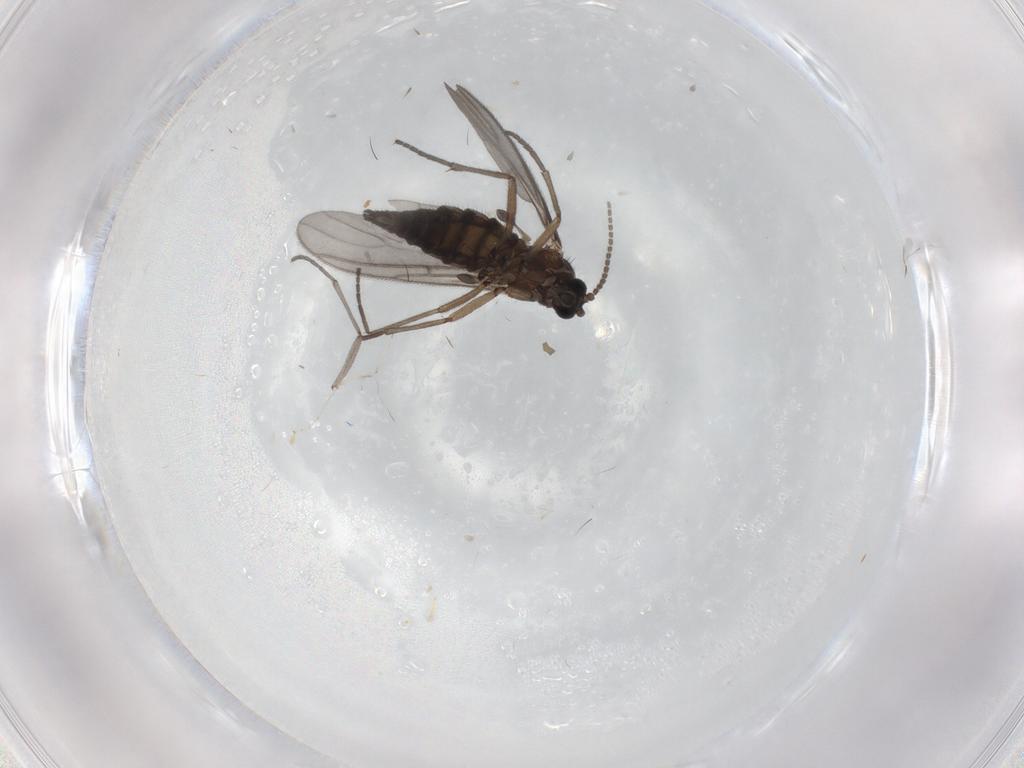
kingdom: Animalia
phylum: Arthropoda
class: Insecta
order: Diptera
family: Sciaridae
